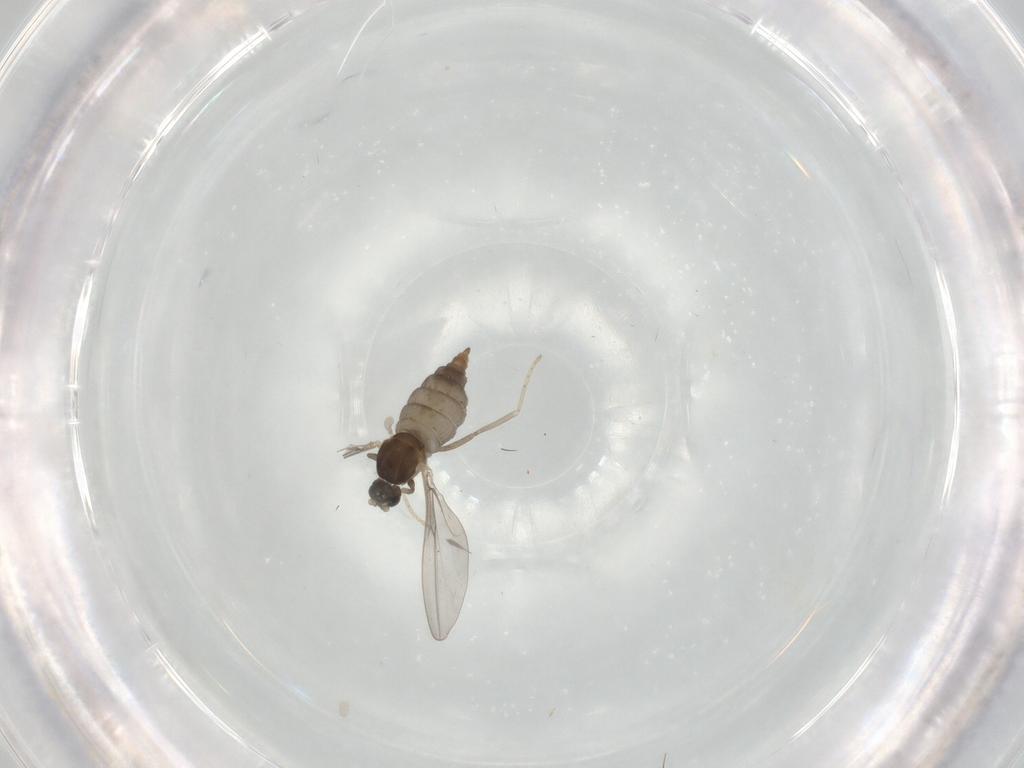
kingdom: Animalia
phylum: Arthropoda
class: Insecta
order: Diptera
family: Cecidomyiidae
